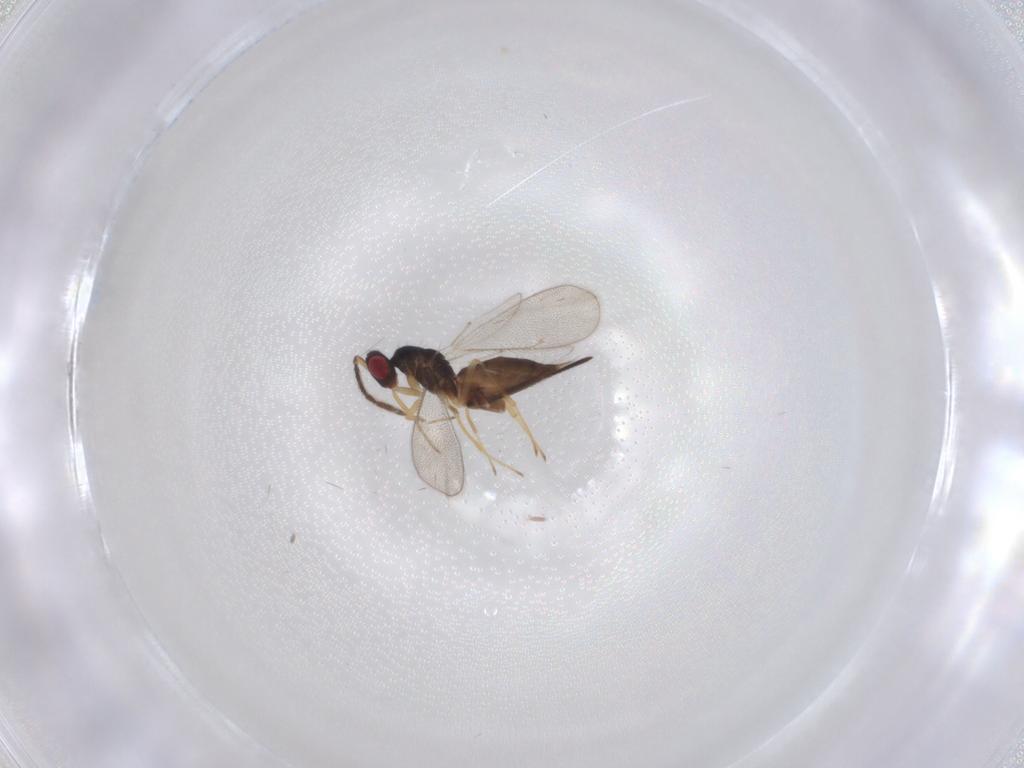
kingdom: Animalia
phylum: Arthropoda
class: Insecta
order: Hymenoptera
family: Eulophidae
